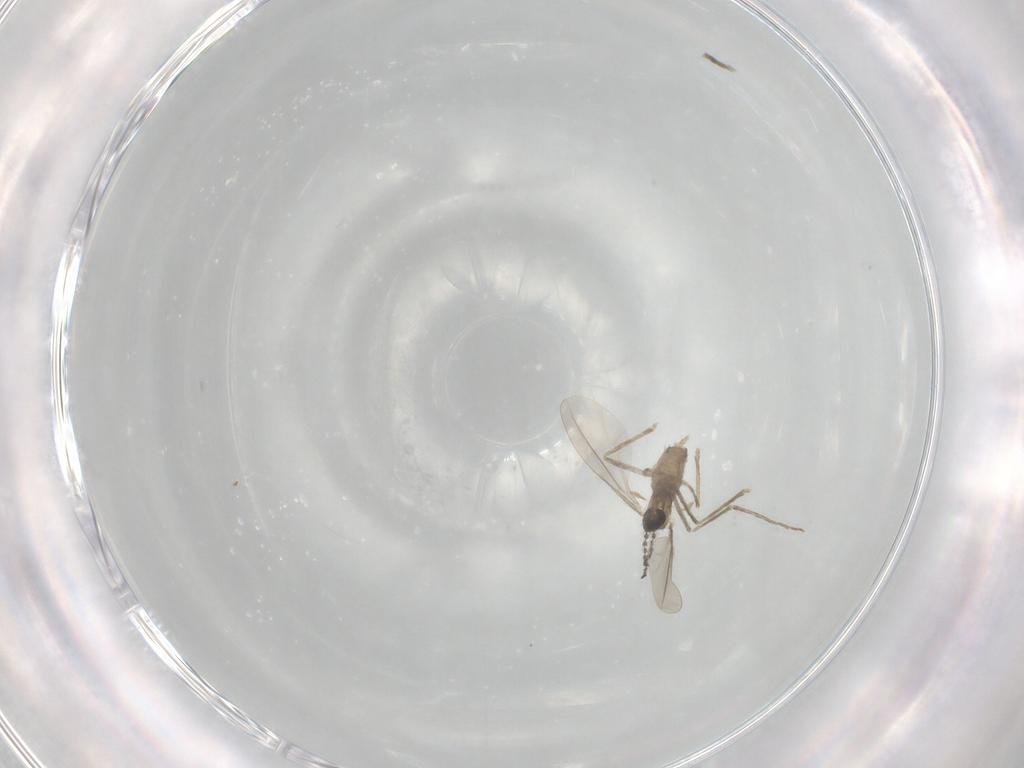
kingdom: Animalia
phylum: Arthropoda
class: Insecta
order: Diptera
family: Cecidomyiidae
